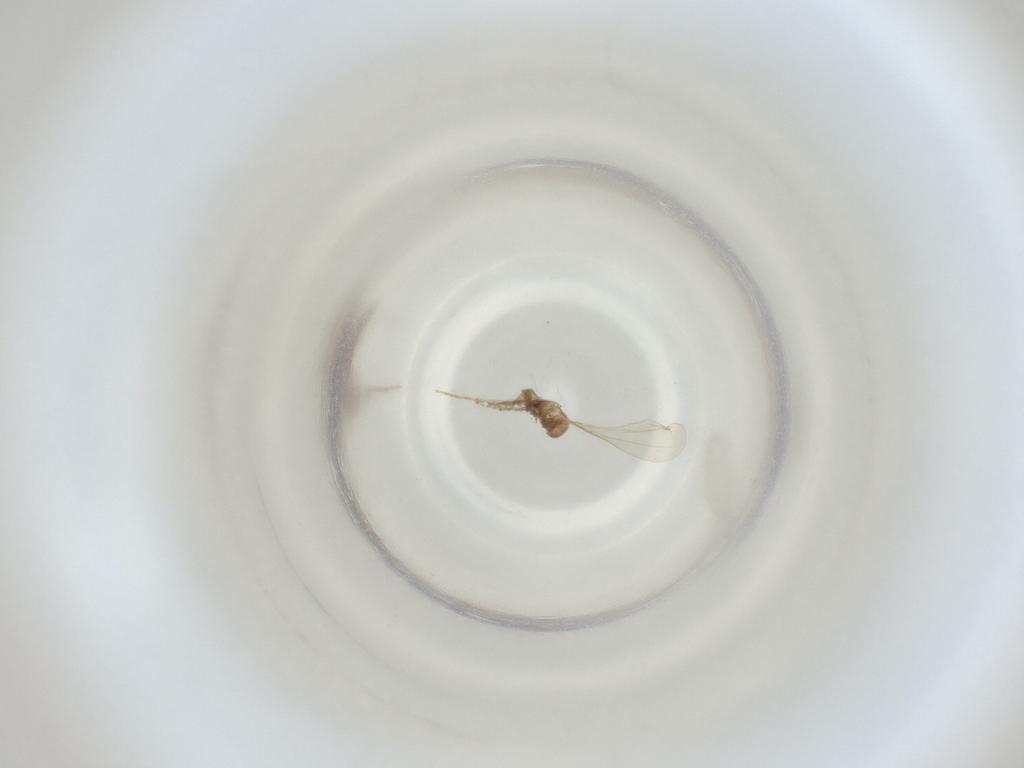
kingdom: Animalia
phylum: Arthropoda
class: Insecta
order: Diptera
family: Cecidomyiidae
